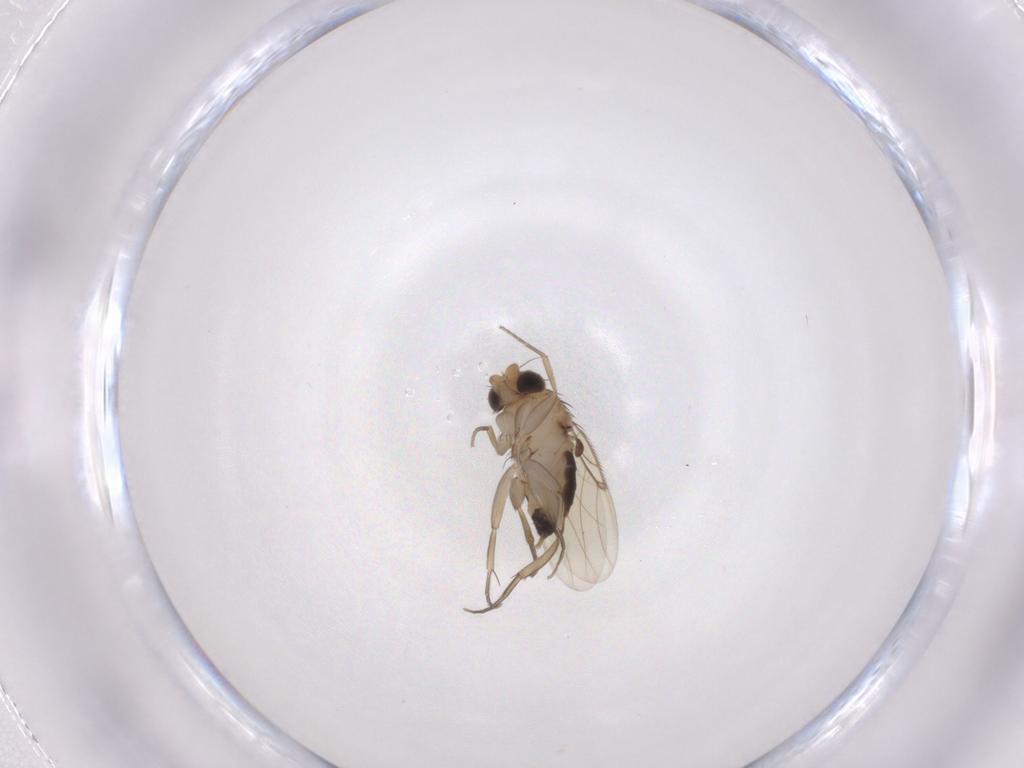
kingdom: Animalia
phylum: Arthropoda
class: Insecta
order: Diptera
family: Phoridae
